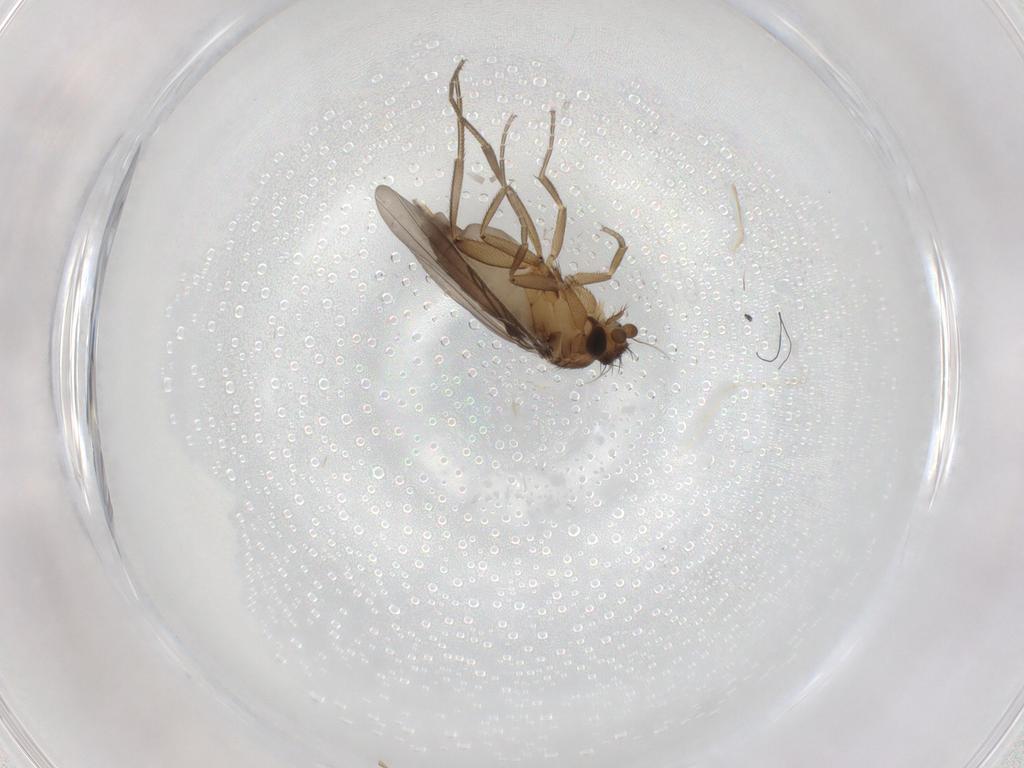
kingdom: Animalia
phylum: Arthropoda
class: Insecta
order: Diptera
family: Phoridae
